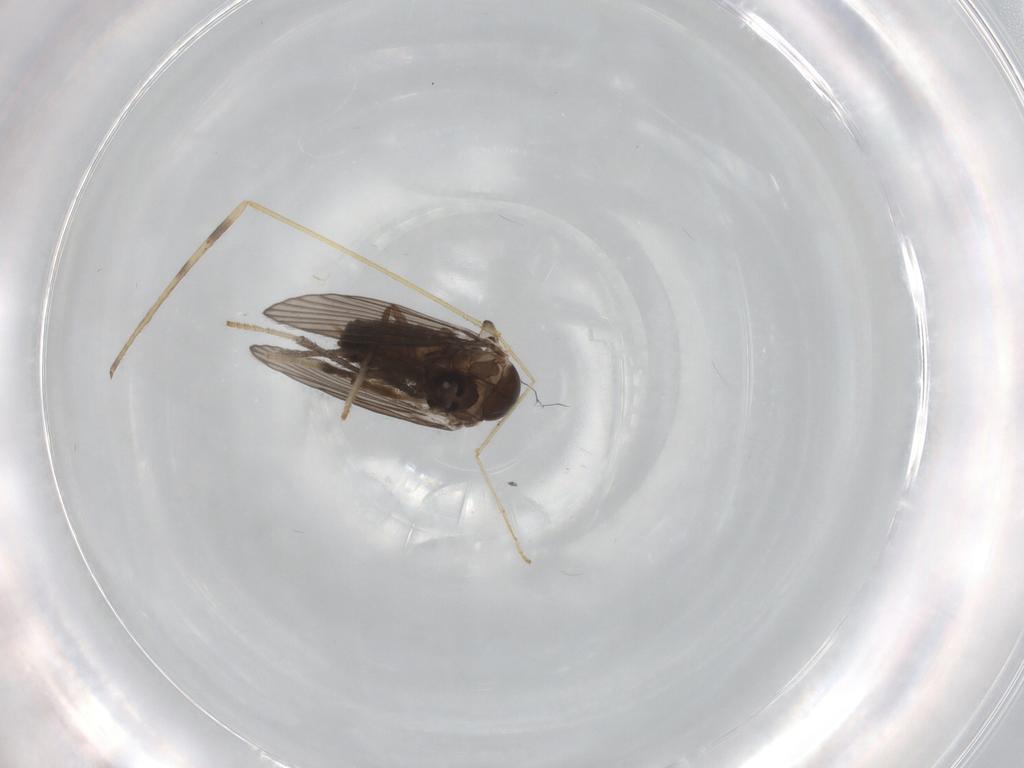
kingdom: Animalia
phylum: Arthropoda
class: Insecta
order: Diptera
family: Psychodidae
